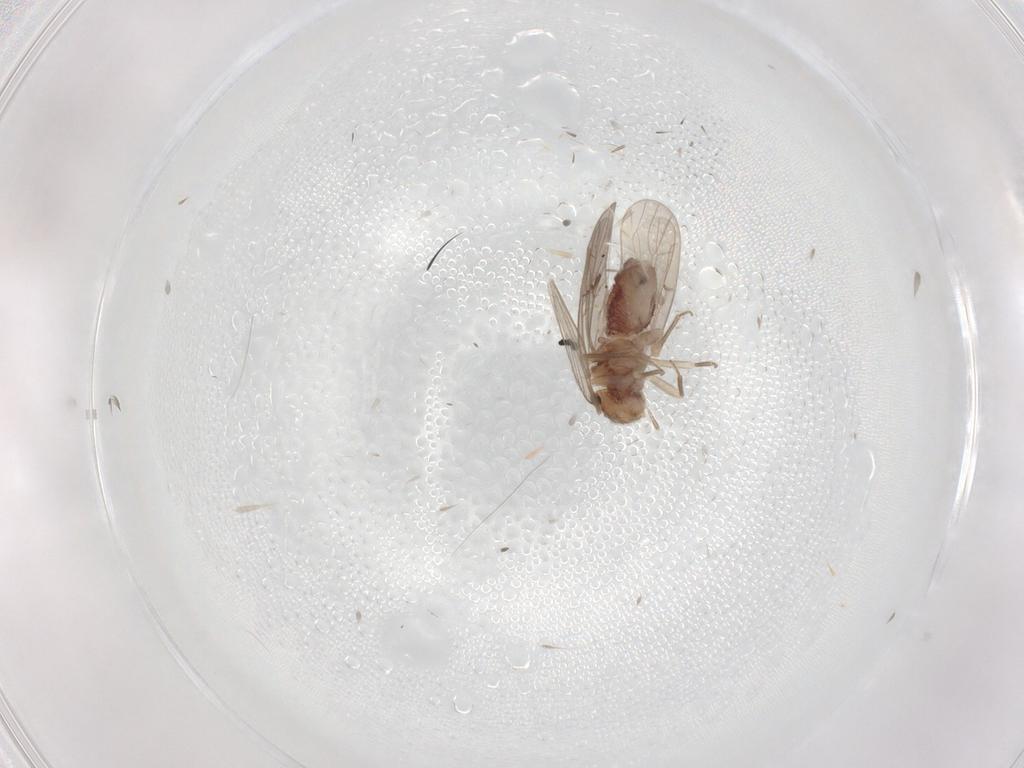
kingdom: Animalia
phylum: Arthropoda
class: Insecta
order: Psocodea
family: Ectopsocidae
